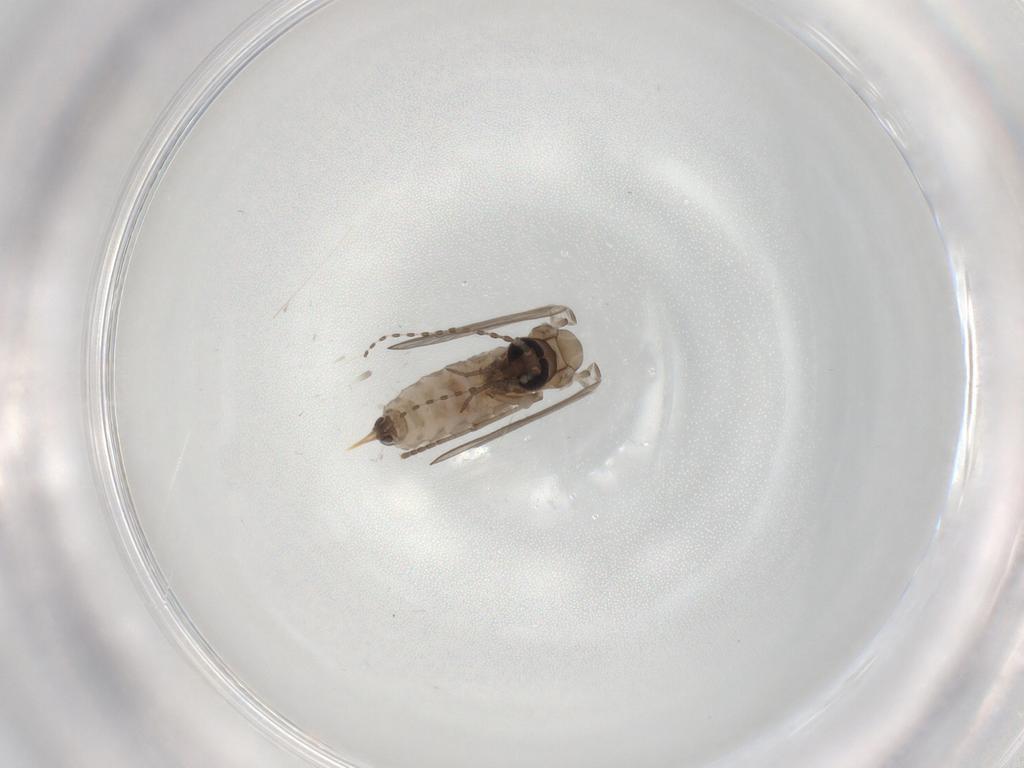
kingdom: Animalia
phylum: Arthropoda
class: Insecta
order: Diptera
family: Psychodidae
